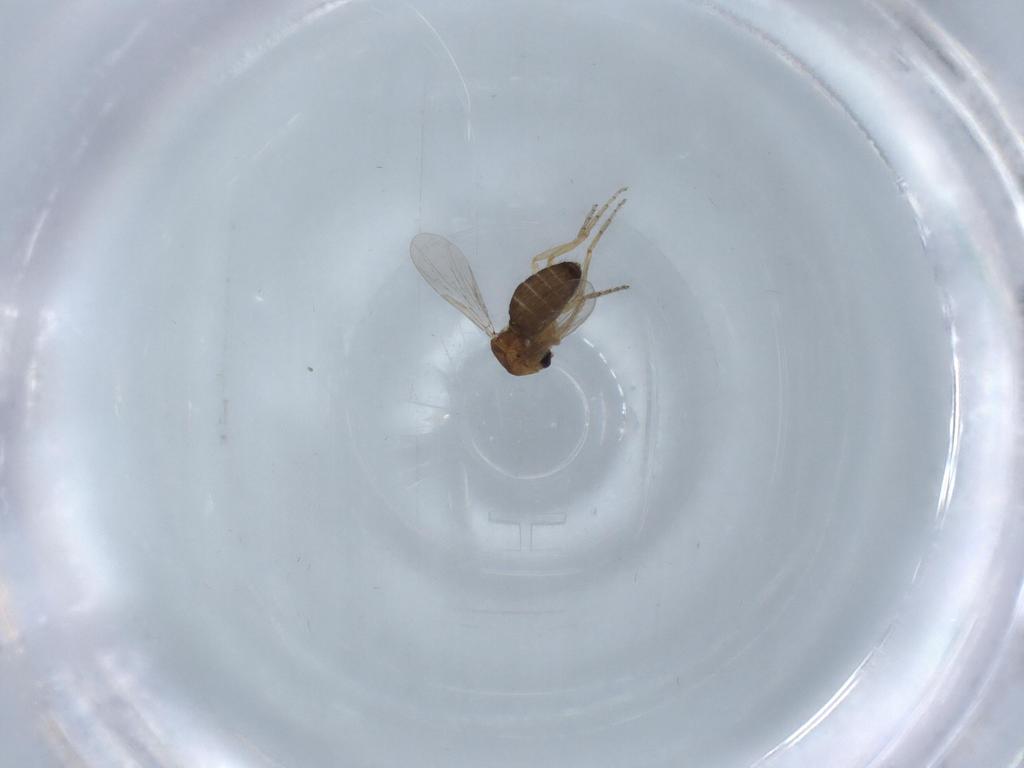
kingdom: Animalia
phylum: Arthropoda
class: Insecta
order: Diptera
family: Ceratopogonidae
